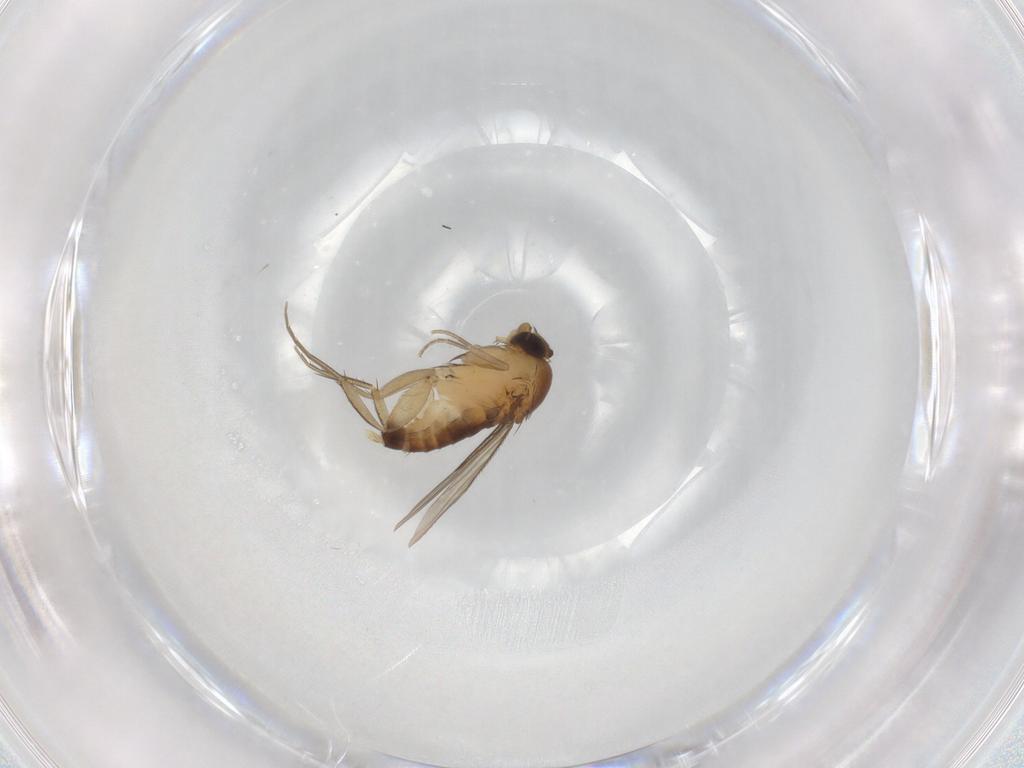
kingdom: Animalia
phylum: Arthropoda
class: Insecta
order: Diptera
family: Phoridae
